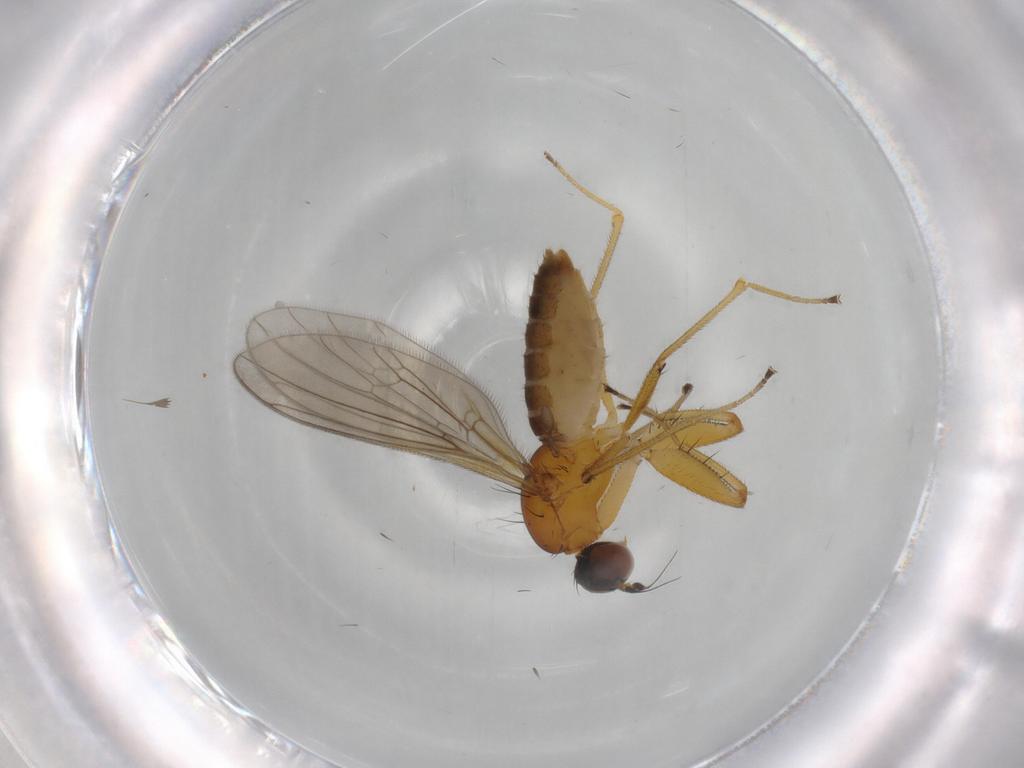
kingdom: Animalia
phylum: Arthropoda
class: Insecta
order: Diptera
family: Empididae
